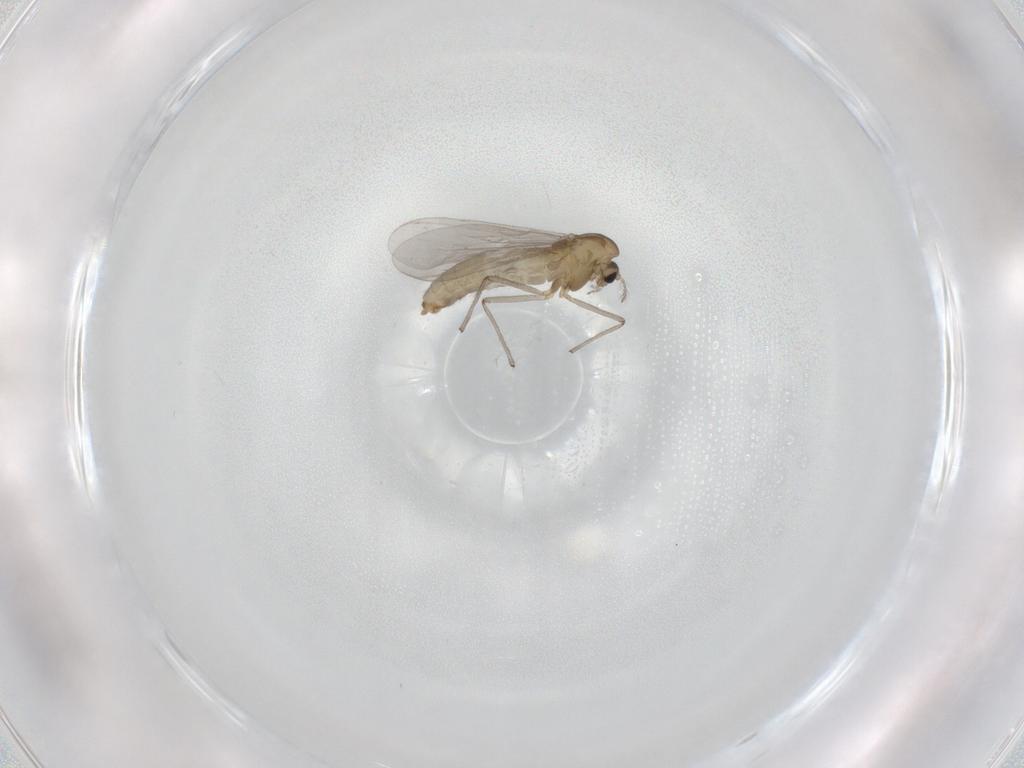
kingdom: Animalia
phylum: Arthropoda
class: Insecta
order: Diptera
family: Chironomidae
